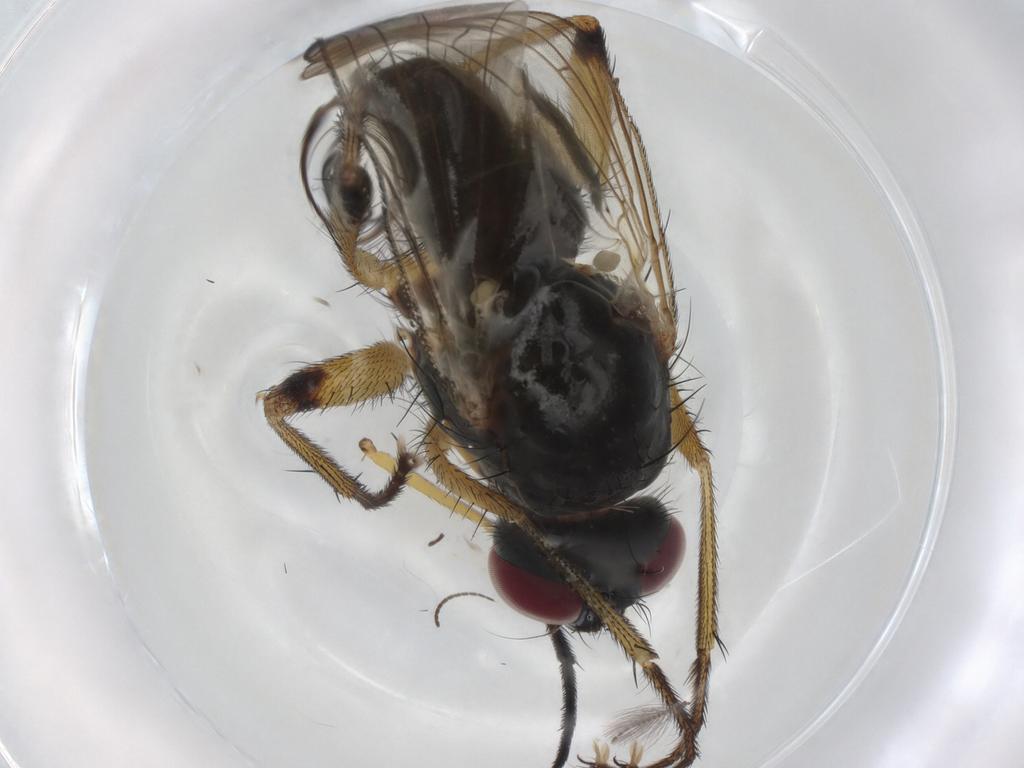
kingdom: Animalia
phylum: Arthropoda
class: Insecta
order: Diptera
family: Muscidae
